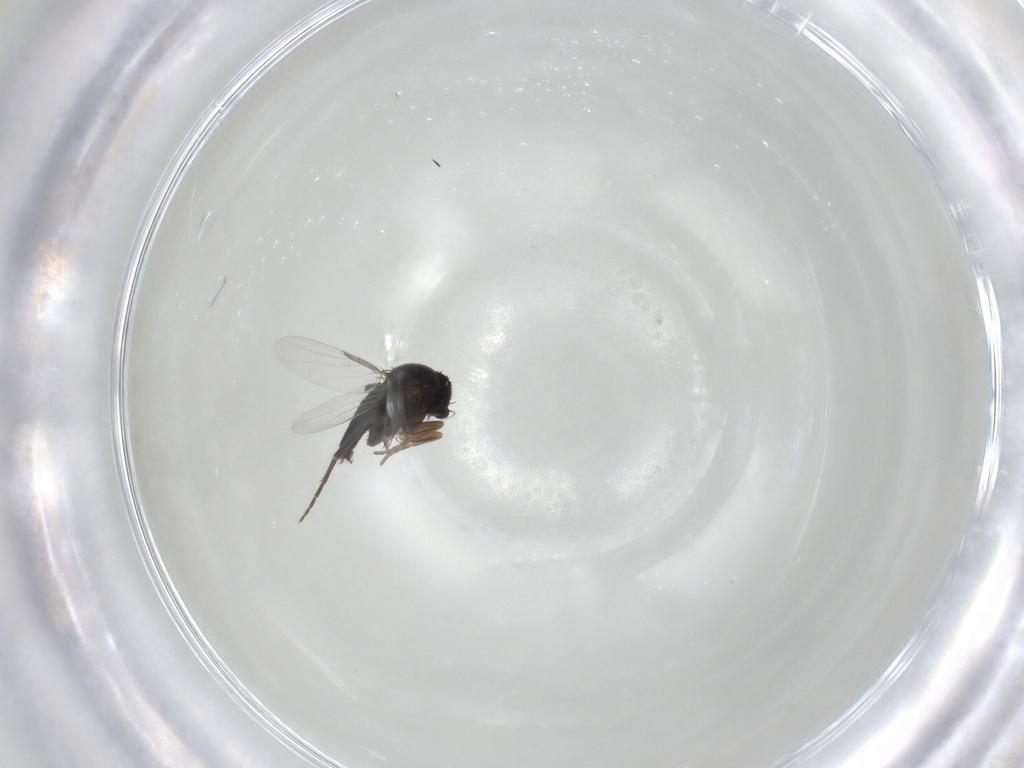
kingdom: Animalia
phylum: Arthropoda
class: Insecta
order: Diptera
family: Phoridae
